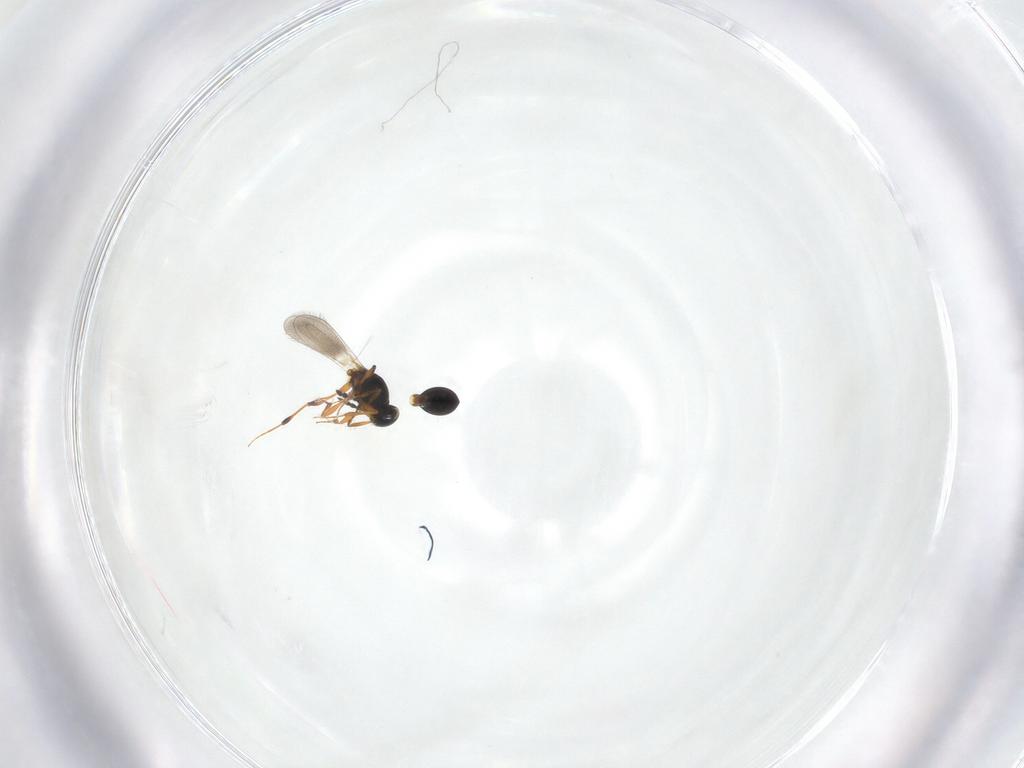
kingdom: Animalia
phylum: Arthropoda
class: Insecta
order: Hymenoptera
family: Platygastridae
